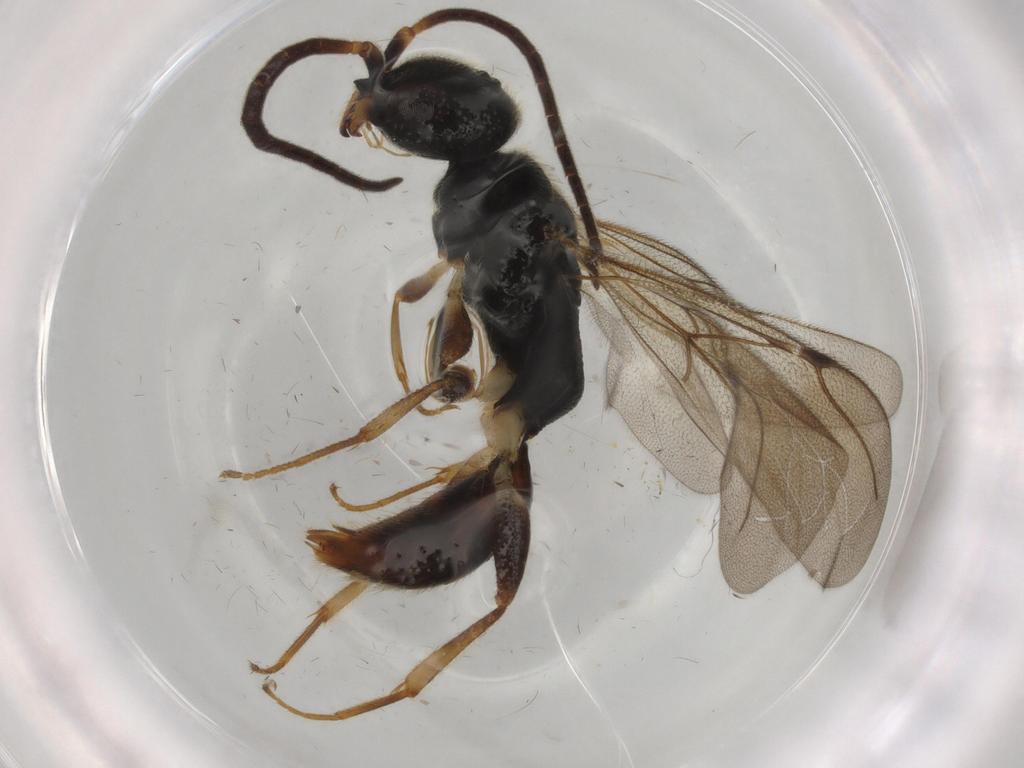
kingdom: Animalia
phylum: Arthropoda
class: Insecta
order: Hymenoptera
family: Bethylidae
